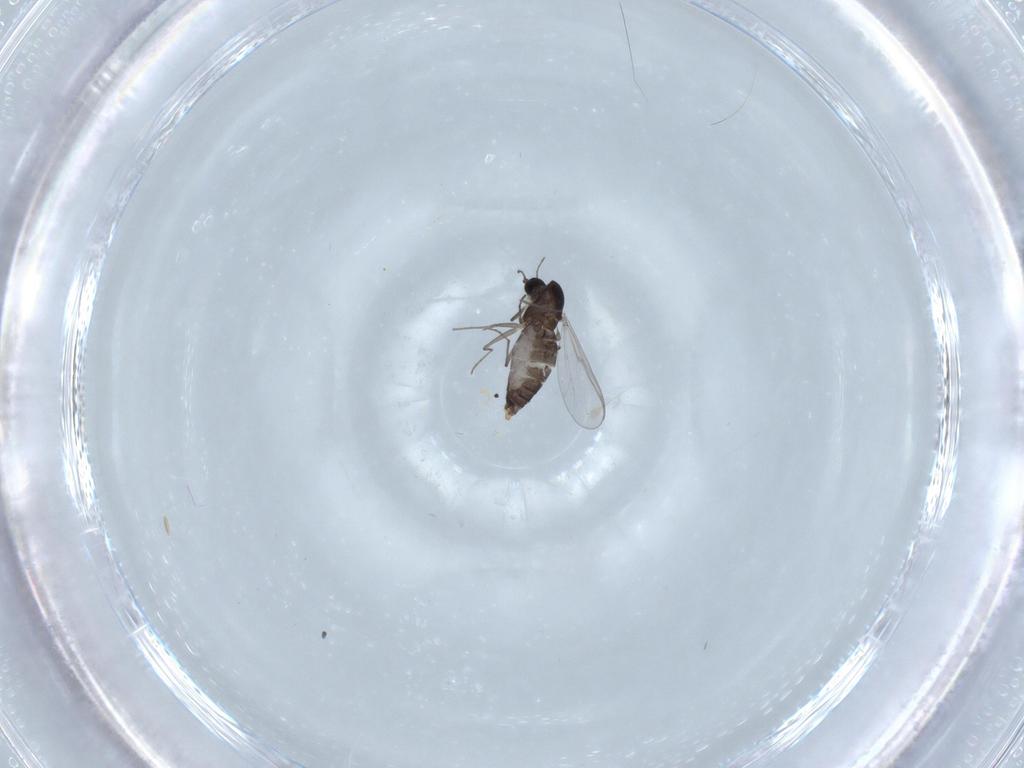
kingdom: Animalia
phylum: Arthropoda
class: Insecta
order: Diptera
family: Chironomidae
